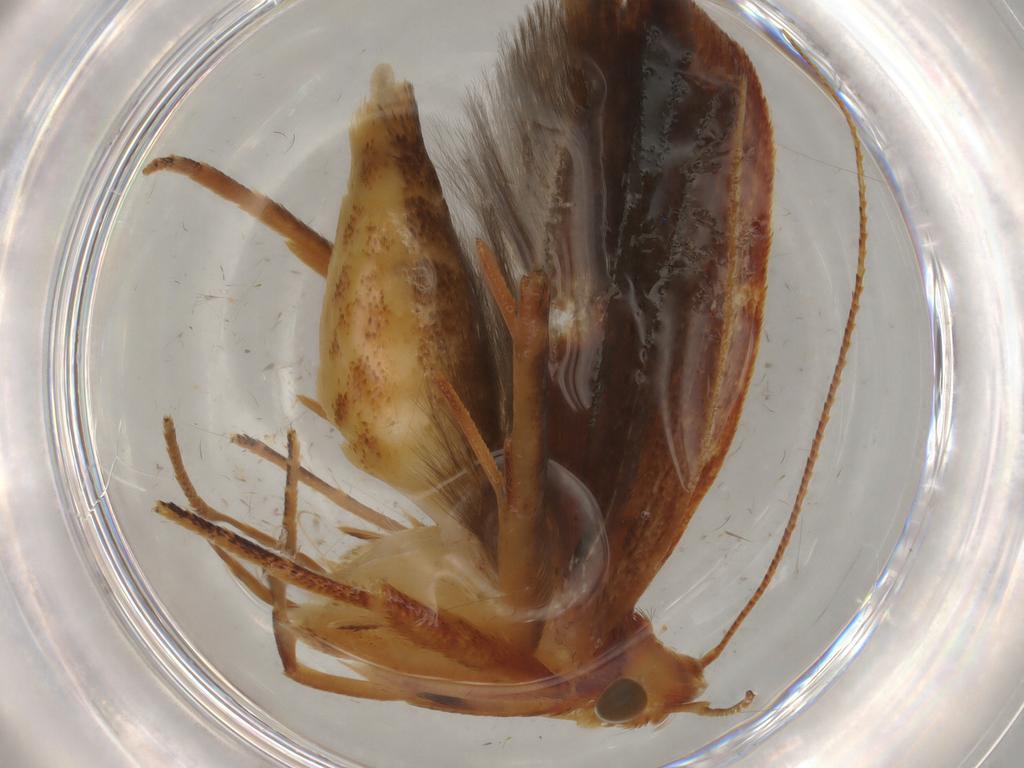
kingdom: Animalia
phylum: Arthropoda
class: Insecta
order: Lepidoptera
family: Gelechiidae
